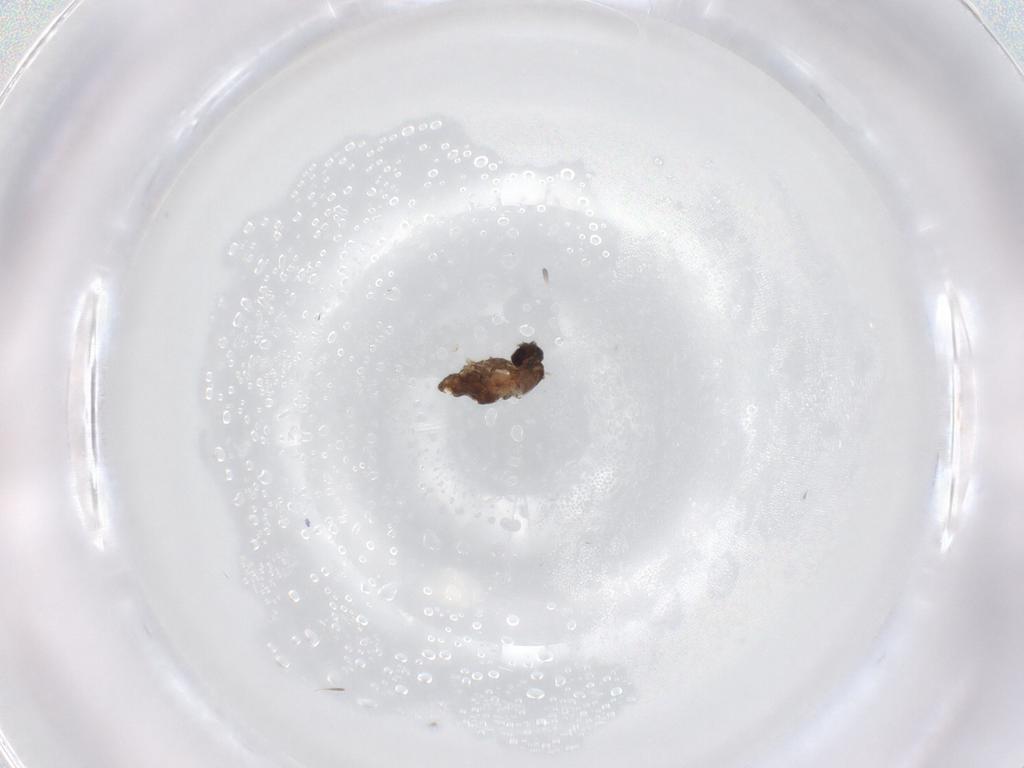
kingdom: Animalia
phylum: Arthropoda
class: Insecta
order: Diptera
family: Chironomidae
